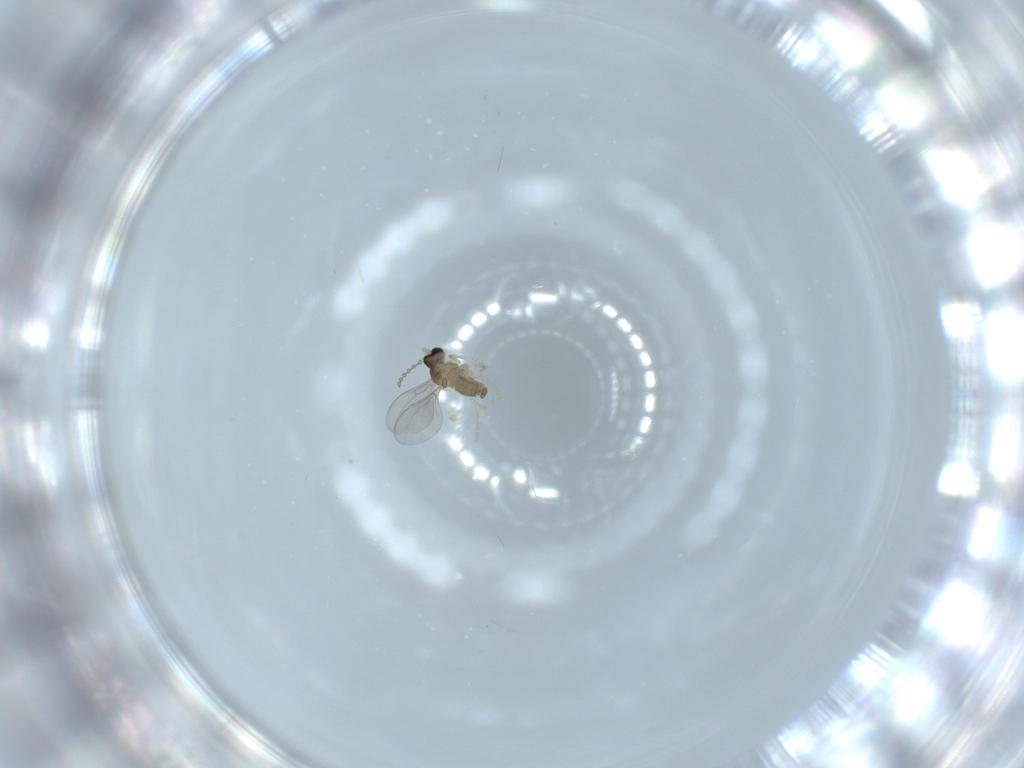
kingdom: Animalia
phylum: Arthropoda
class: Insecta
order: Diptera
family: Cecidomyiidae
